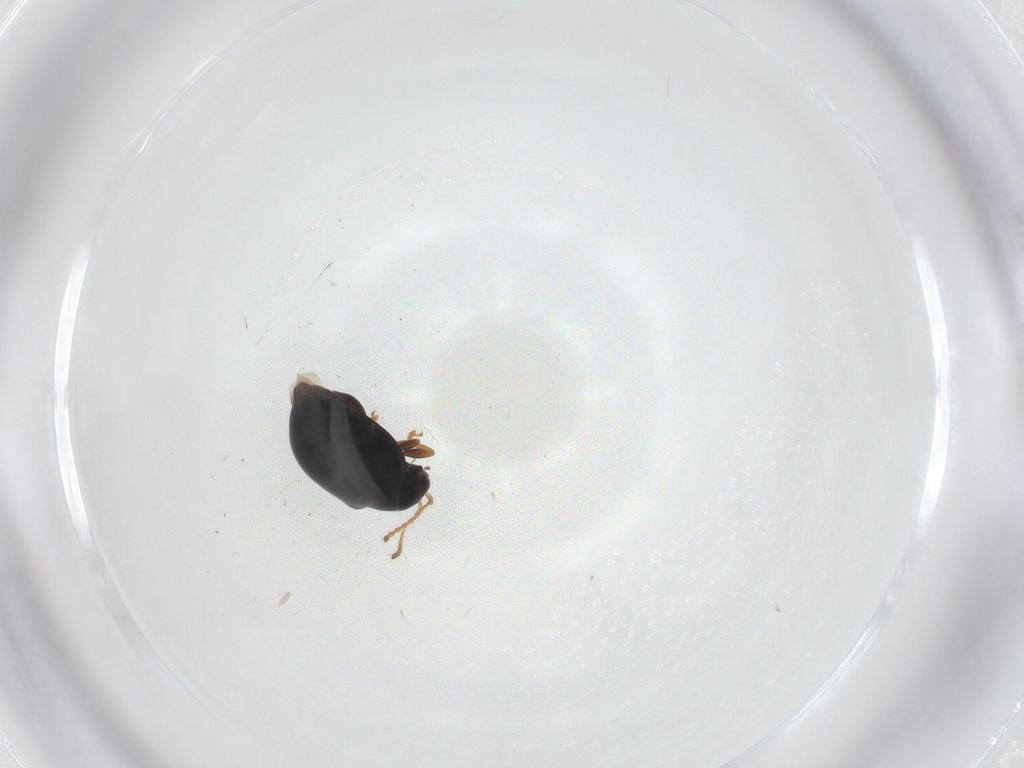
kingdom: Animalia
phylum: Arthropoda
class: Insecta
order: Coleoptera
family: Chrysomelidae
